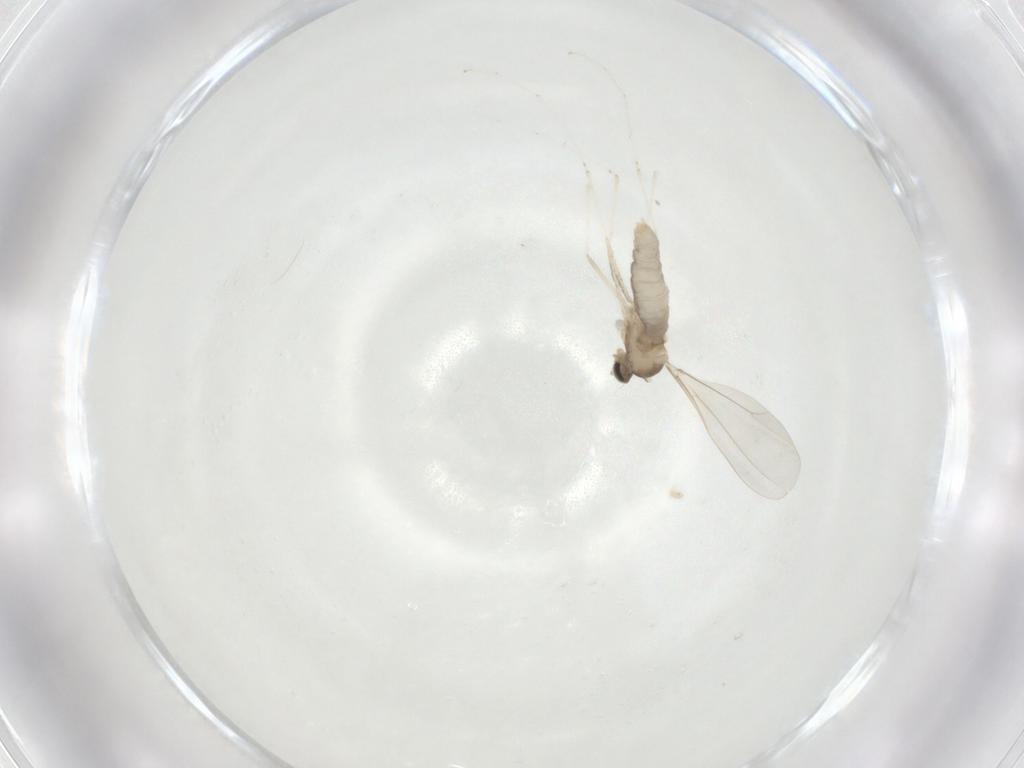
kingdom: Animalia
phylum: Arthropoda
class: Insecta
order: Diptera
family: Cecidomyiidae
